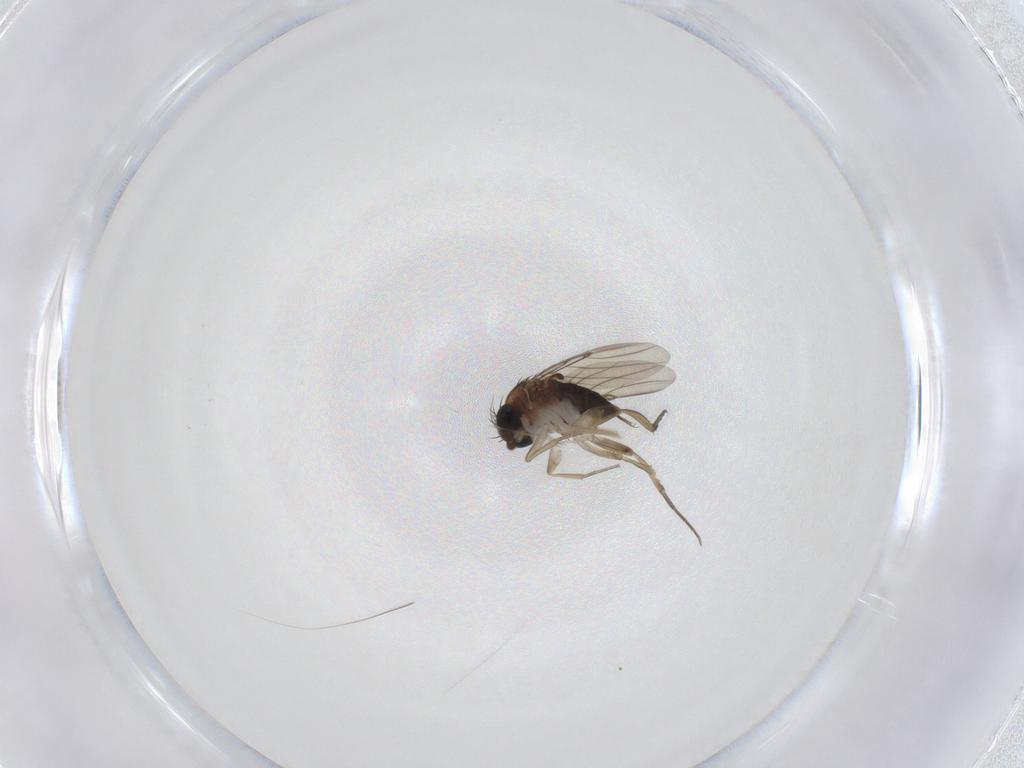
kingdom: Animalia
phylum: Arthropoda
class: Insecta
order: Diptera
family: Phoridae
